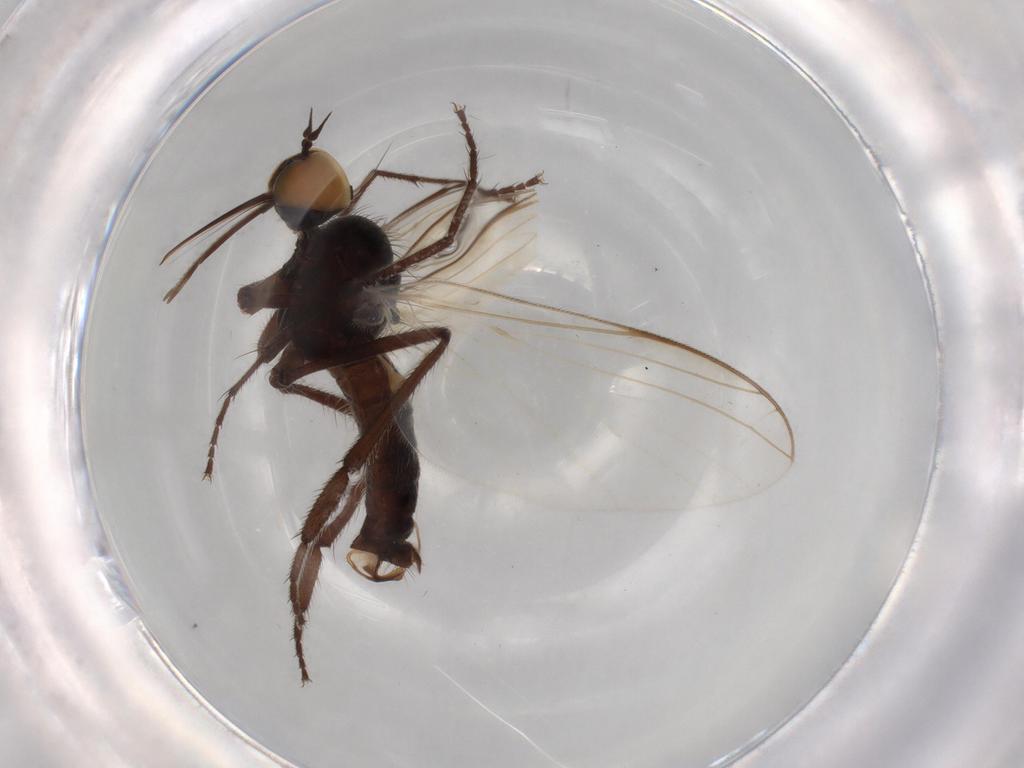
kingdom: Animalia
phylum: Arthropoda
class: Insecta
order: Diptera
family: Empididae
